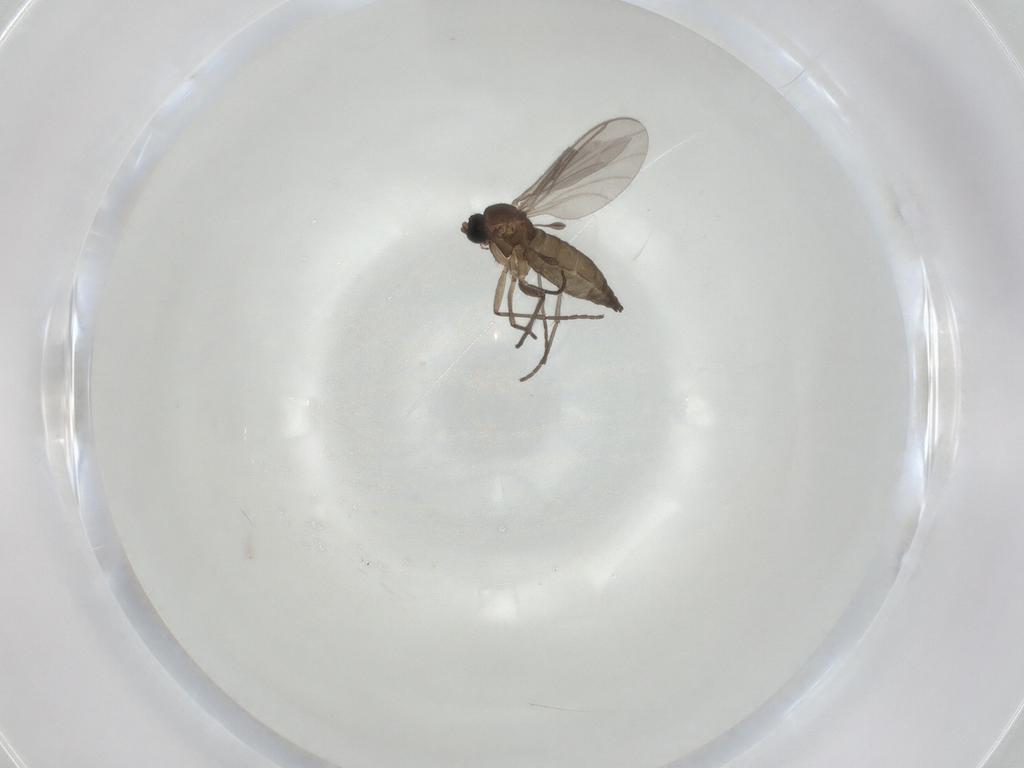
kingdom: Animalia
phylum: Arthropoda
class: Insecta
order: Diptera
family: Sciaridae
